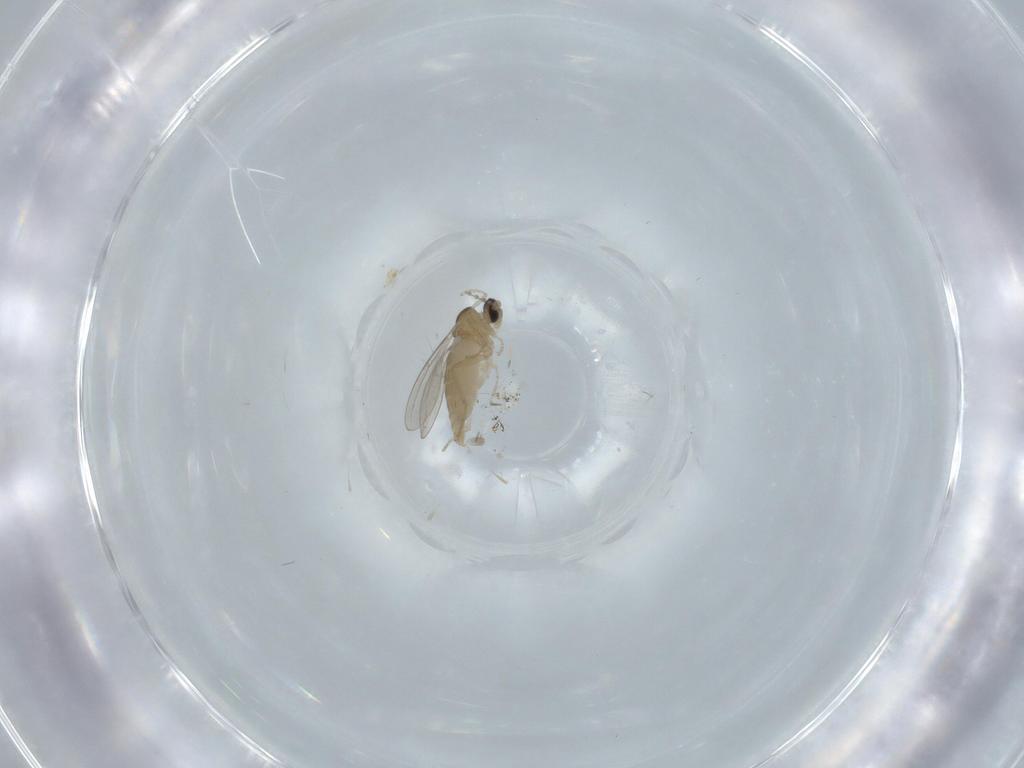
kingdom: Animalia
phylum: Arthropoda
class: Insecta
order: Diptera
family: Cecidomyiidae
